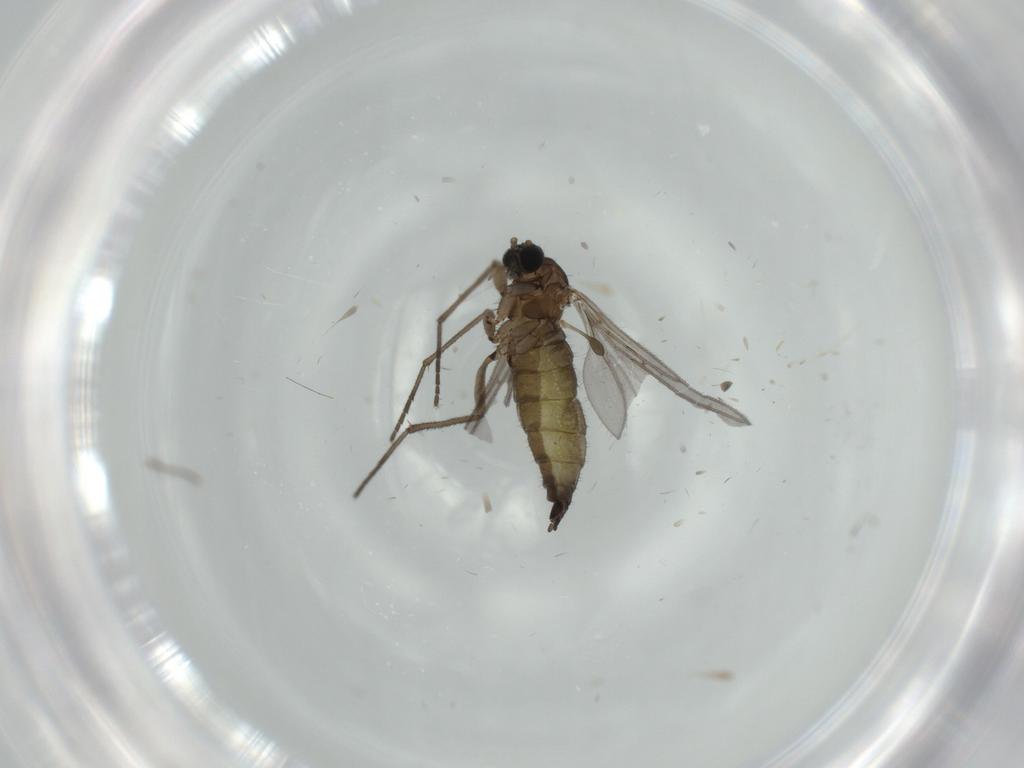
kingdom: Animalia
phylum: Arthropoda
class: Insecta
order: Diptera
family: Sciaridae
